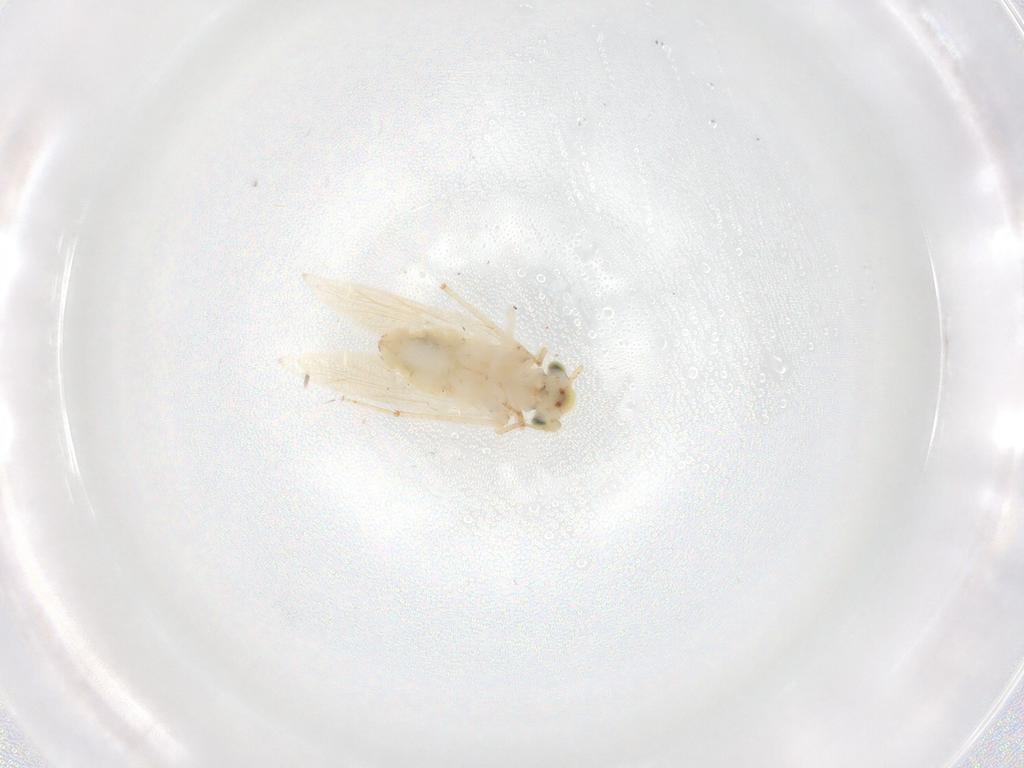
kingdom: Animalia
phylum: Arthropoda
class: Insecta
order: Psocodea
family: Lepidopsocidae
